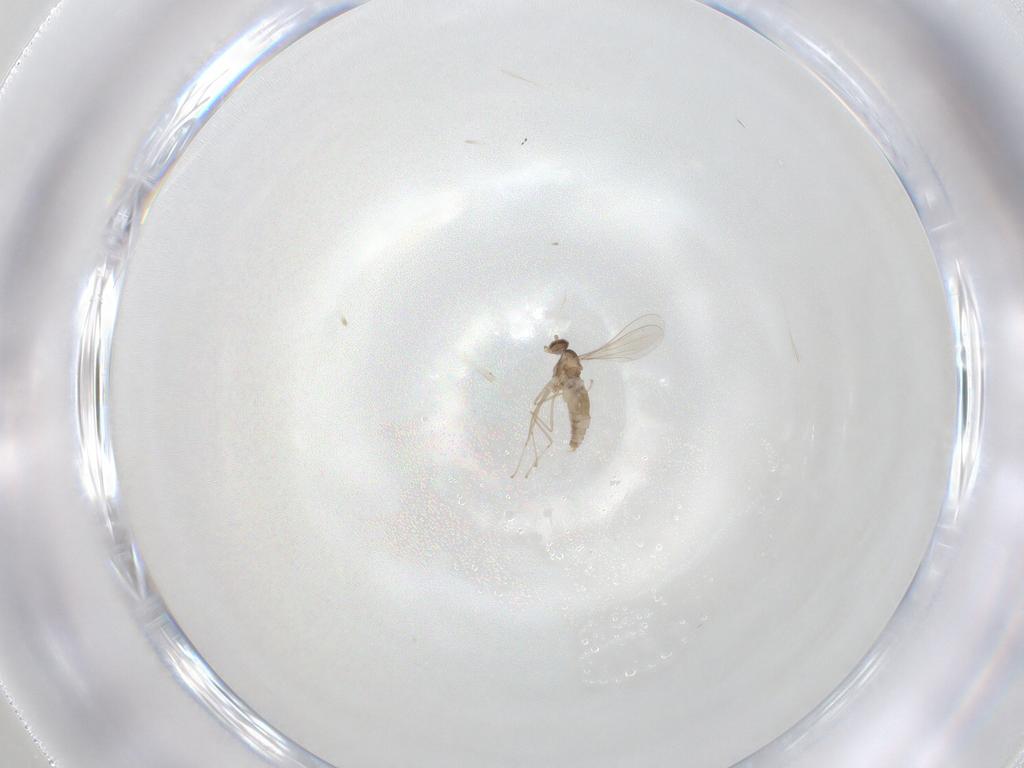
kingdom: Animalia
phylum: Arthropoda
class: Insecta
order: Diptera
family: Cecidomyiidae
